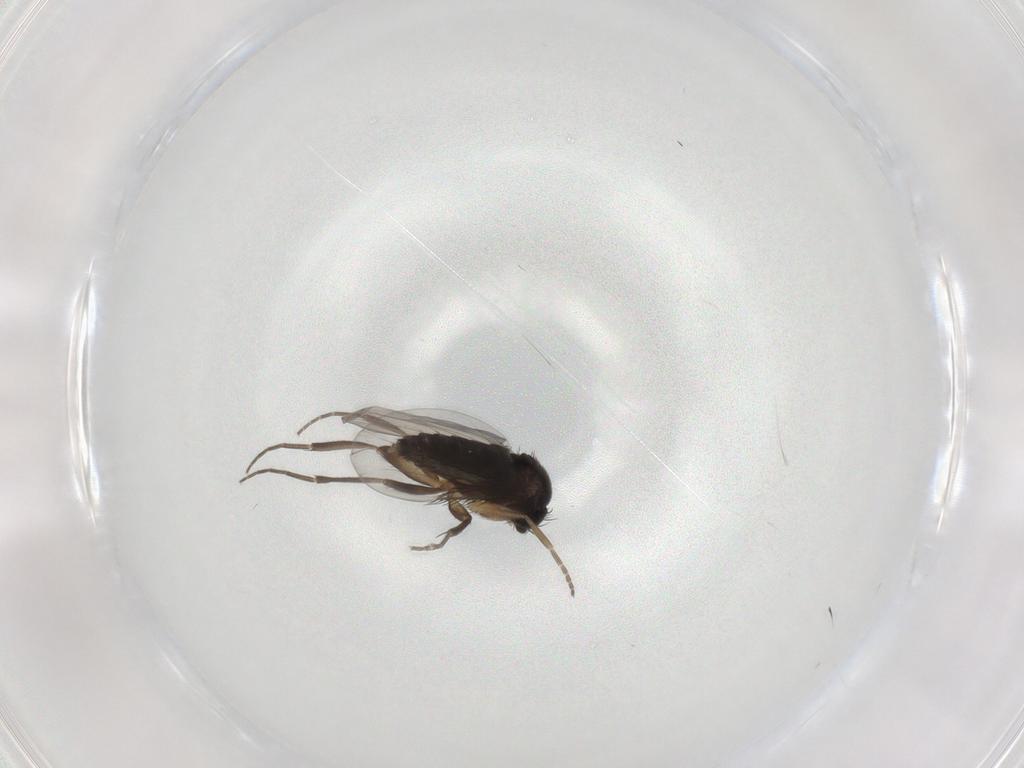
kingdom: Animalia
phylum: Arthropoda
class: Insecta
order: Diptera
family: Phoridae
